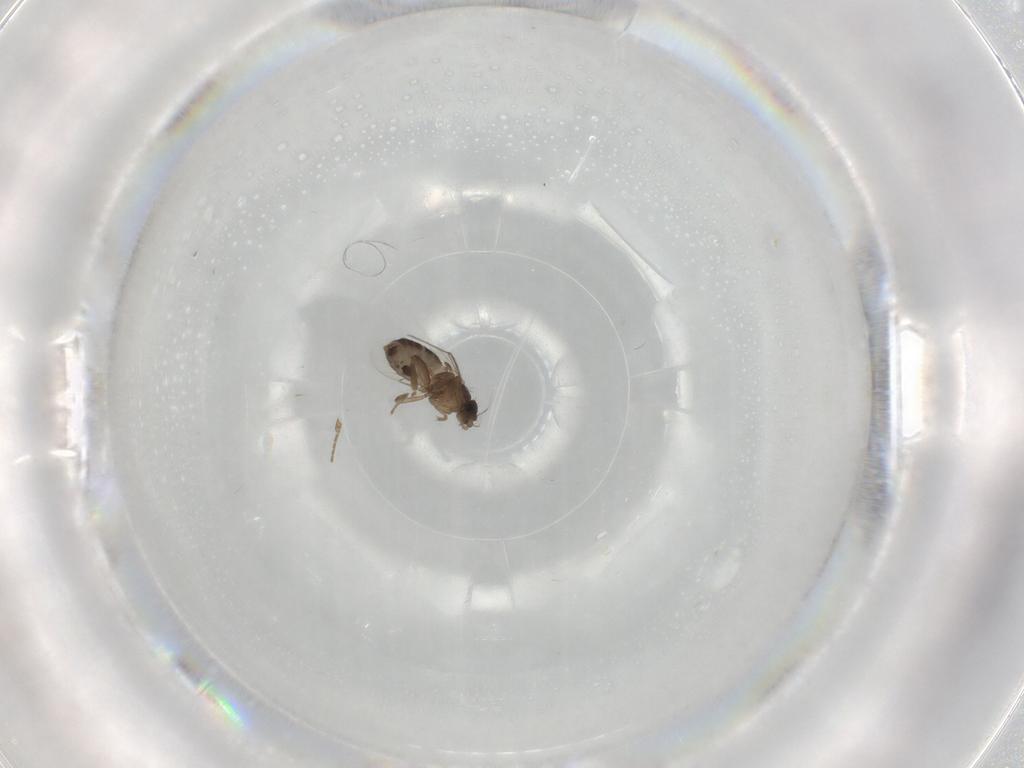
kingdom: Animalia
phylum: Arthropoda
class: Insecta
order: Diptera
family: Phoridae
